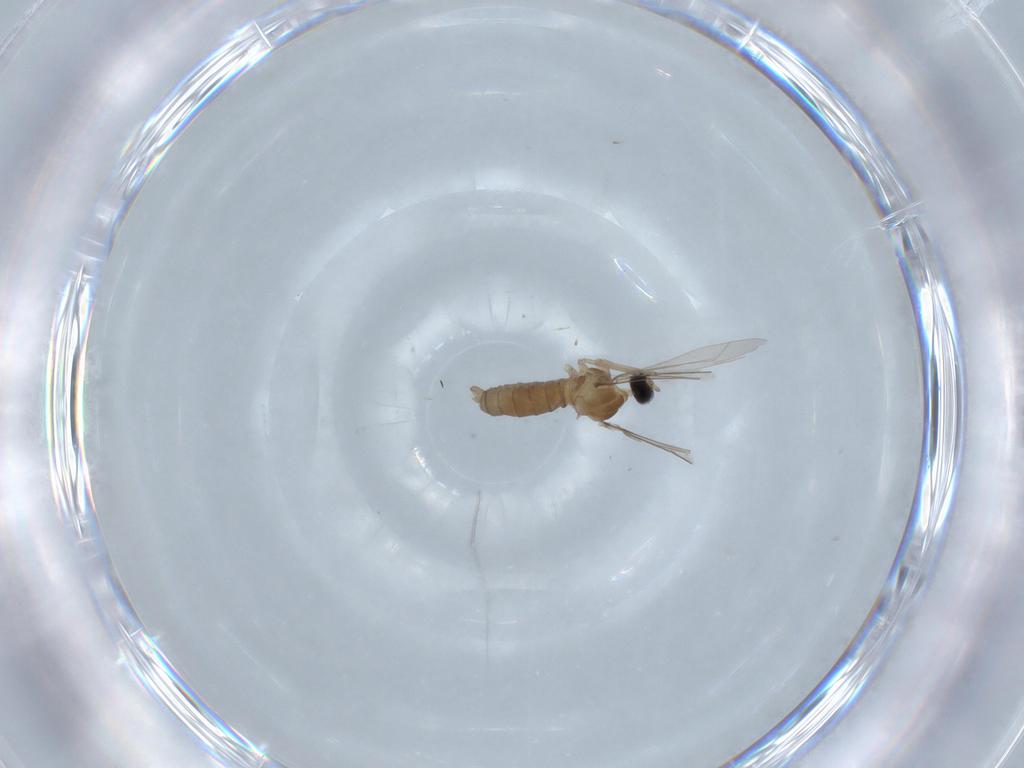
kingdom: Animalia
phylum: Arthropoda
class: Insecta
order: Diptera
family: Cecidomyiidae
